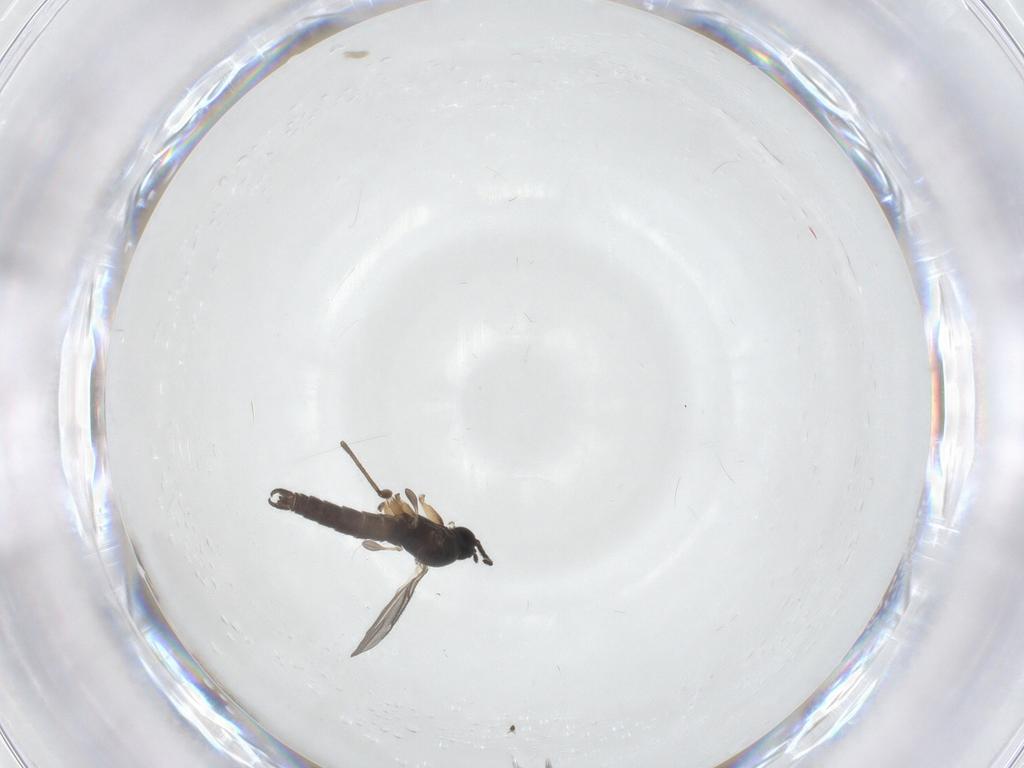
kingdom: Animalia
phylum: Arthropoda
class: Insecta
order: Diptera
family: Sciaridae
